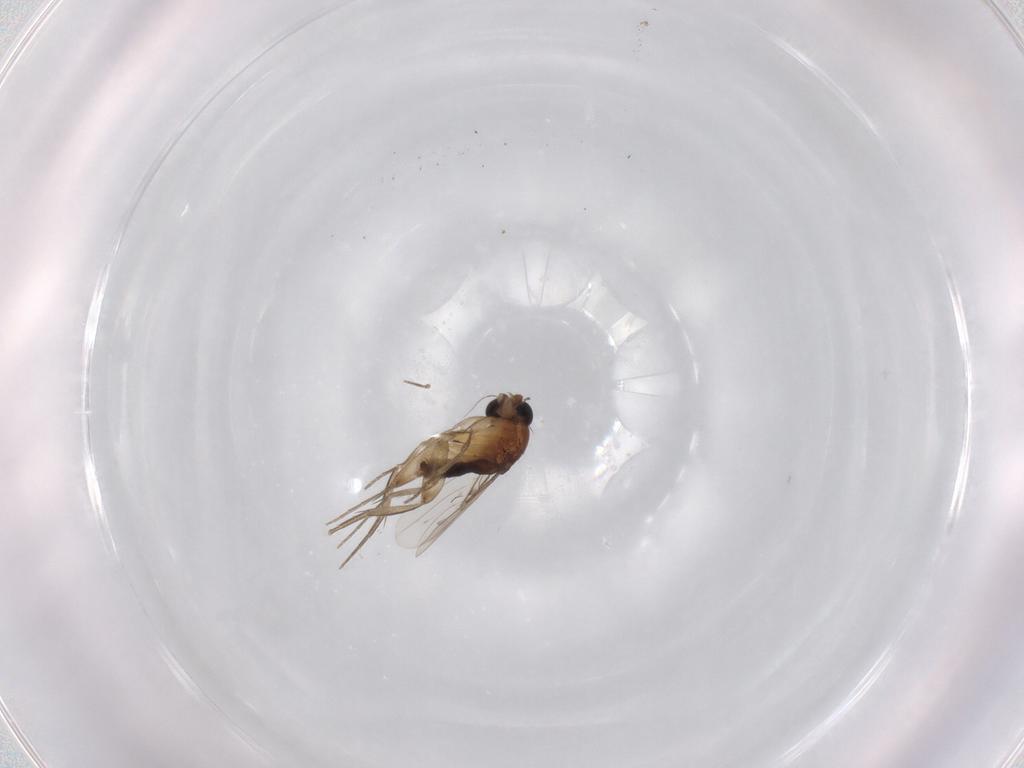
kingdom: Animalia
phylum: Arthropoda
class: Insecta
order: Diptera
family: Phoridae
